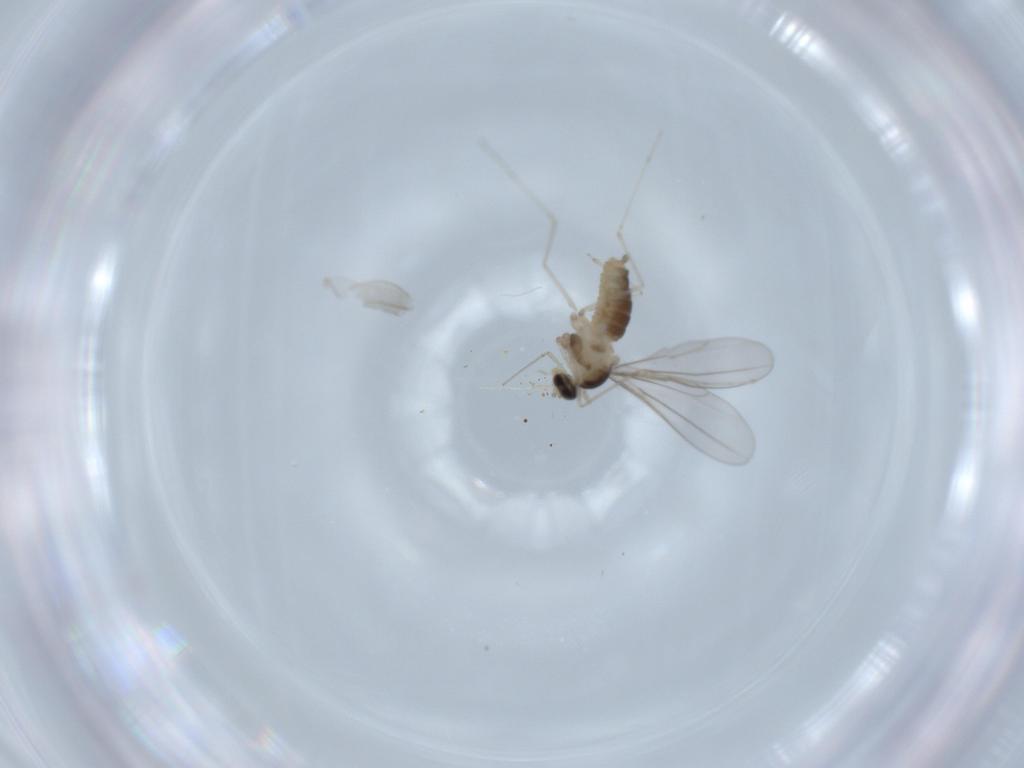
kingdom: Animalia
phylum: Arthropoda
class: Insecta
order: Diptera
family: Cecidomyiidae
